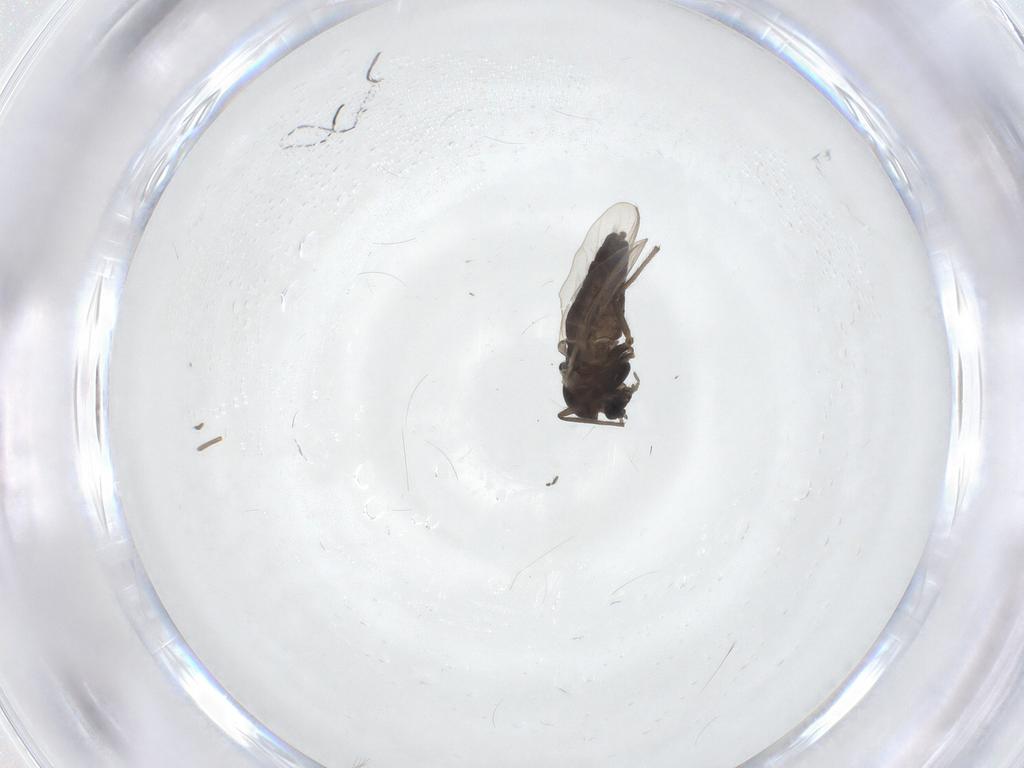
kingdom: Animalia
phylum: Arthropoda
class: Insecta
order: Diptera
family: Chironomidae
